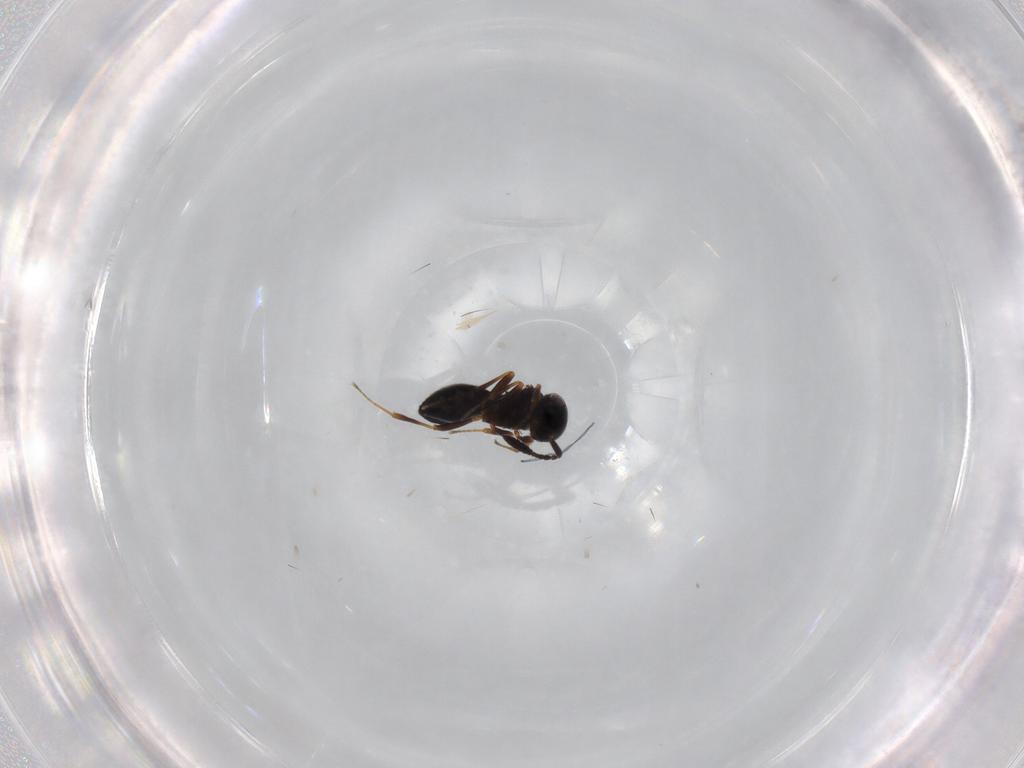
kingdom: Animalia
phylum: Arthropoda
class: Insecta
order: Hymenoptera
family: Scelionidae
